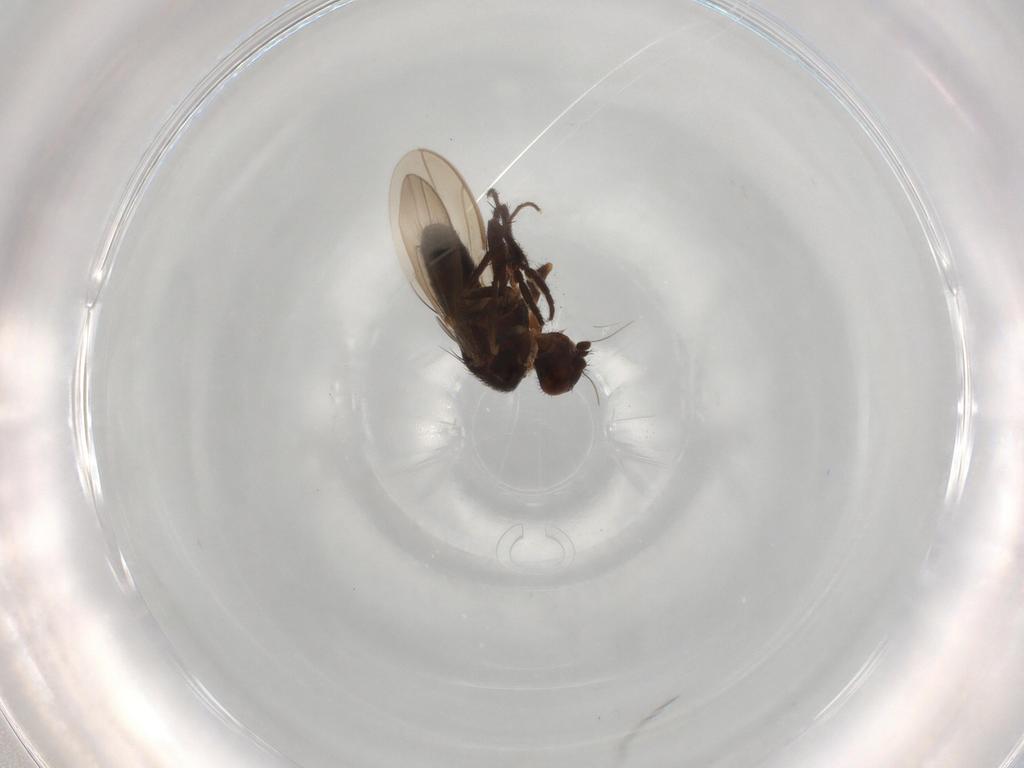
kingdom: Animalia
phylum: Arthropoda
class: Insecta
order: Diptera
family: Sphaeroceridae
